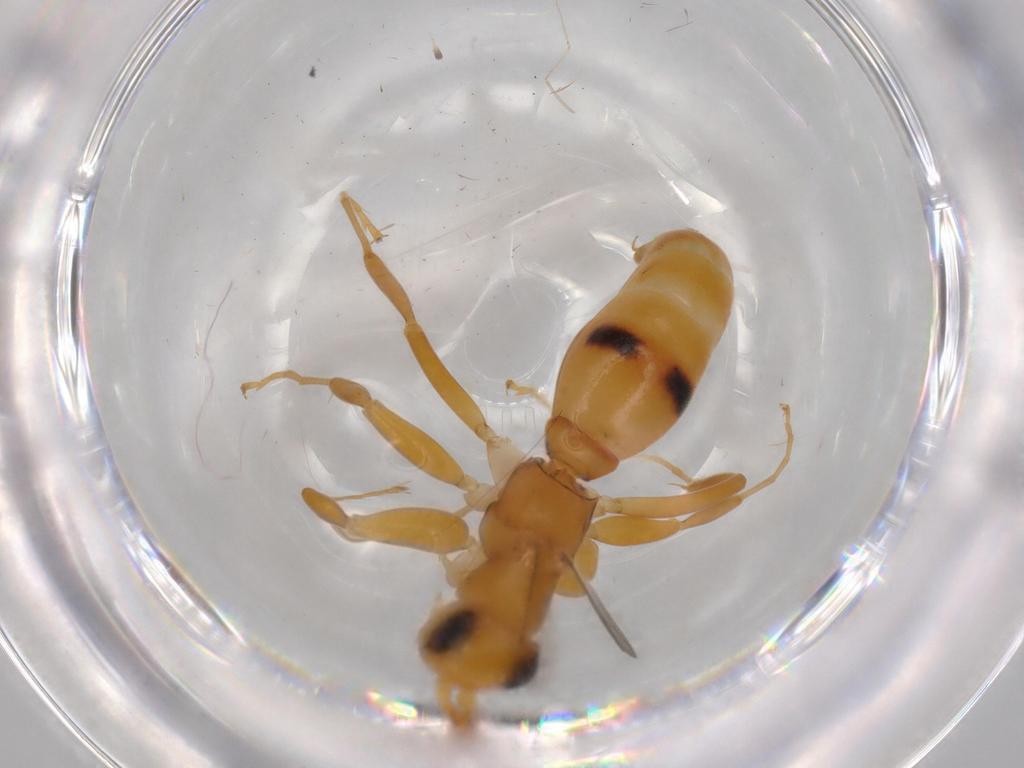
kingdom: Animalia
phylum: Arthropoda
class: Insecta
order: Hymenoptera
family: Rhopalosomatidae
